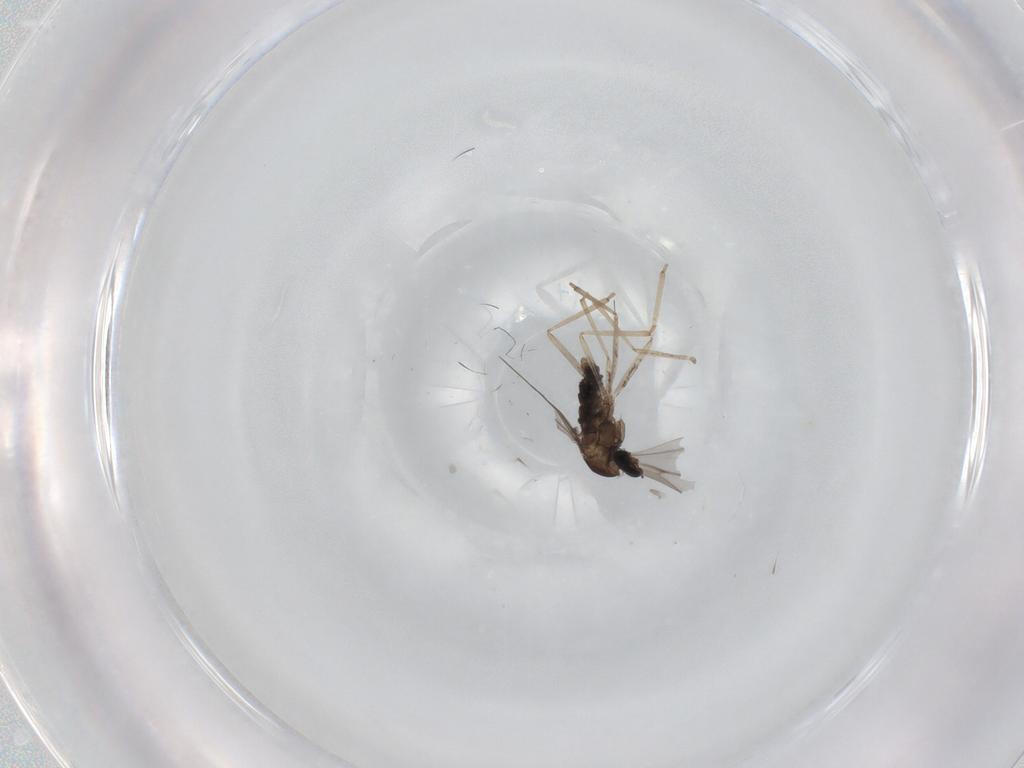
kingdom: Animalia
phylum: Arthropoda
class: Insecta
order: Diptera
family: Cecidomyiidae
